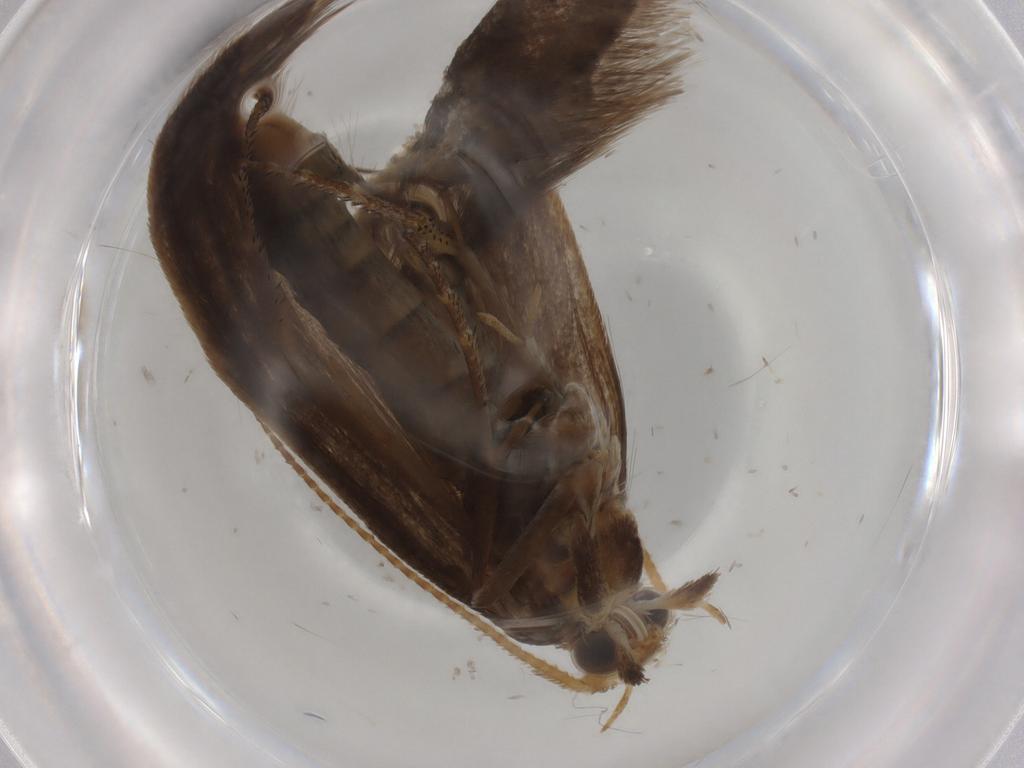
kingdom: Animalia
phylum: Arthropoda
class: Insecta
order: Lepidoptera
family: Nepticulidae
